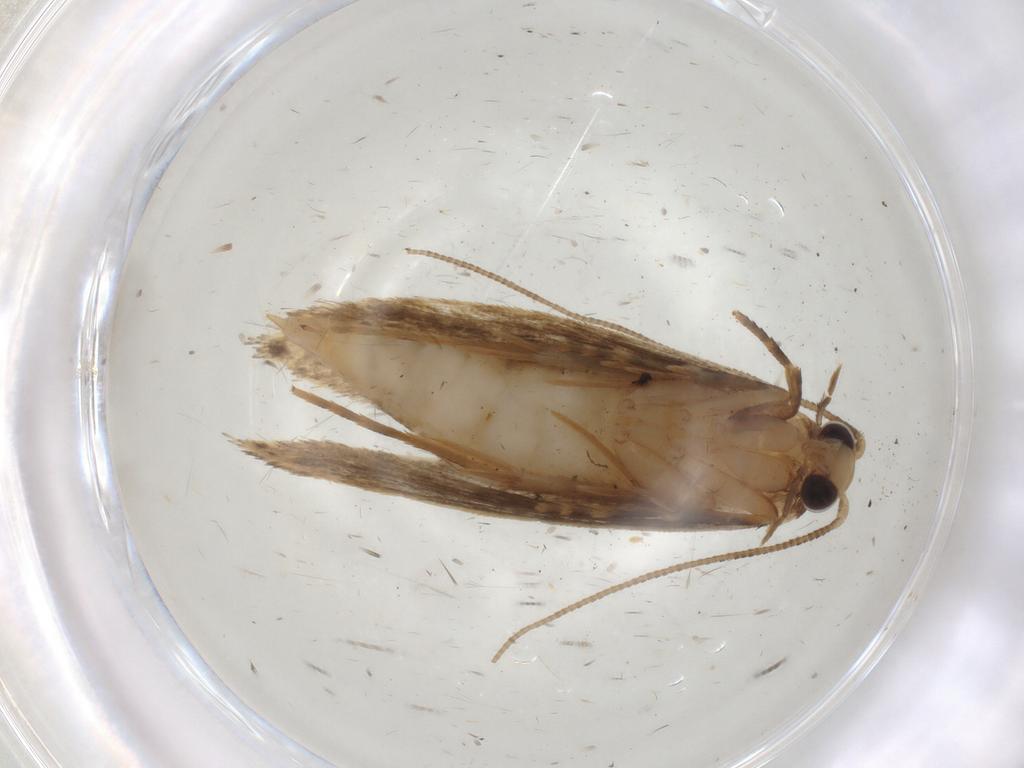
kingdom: Animalia
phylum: Arthropoda
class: Insecta
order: Lepidoptera
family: Tineidae
